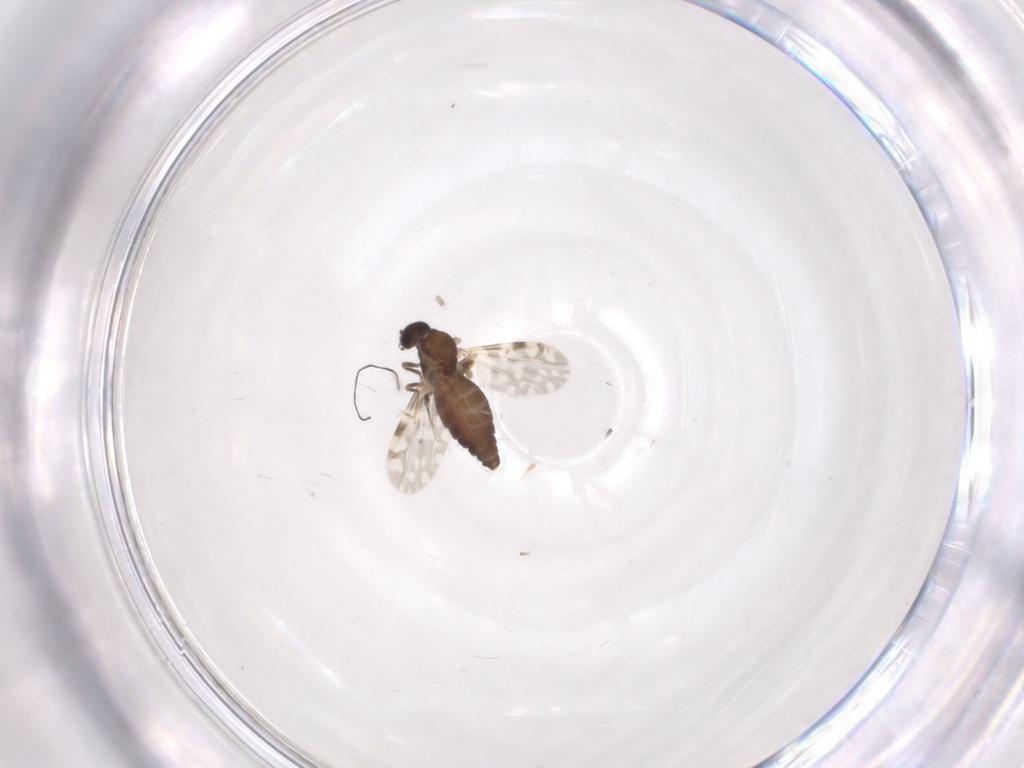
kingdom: Animalia
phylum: Arthropoda
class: Insecta
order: Diptera
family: Ceratopogonidae
